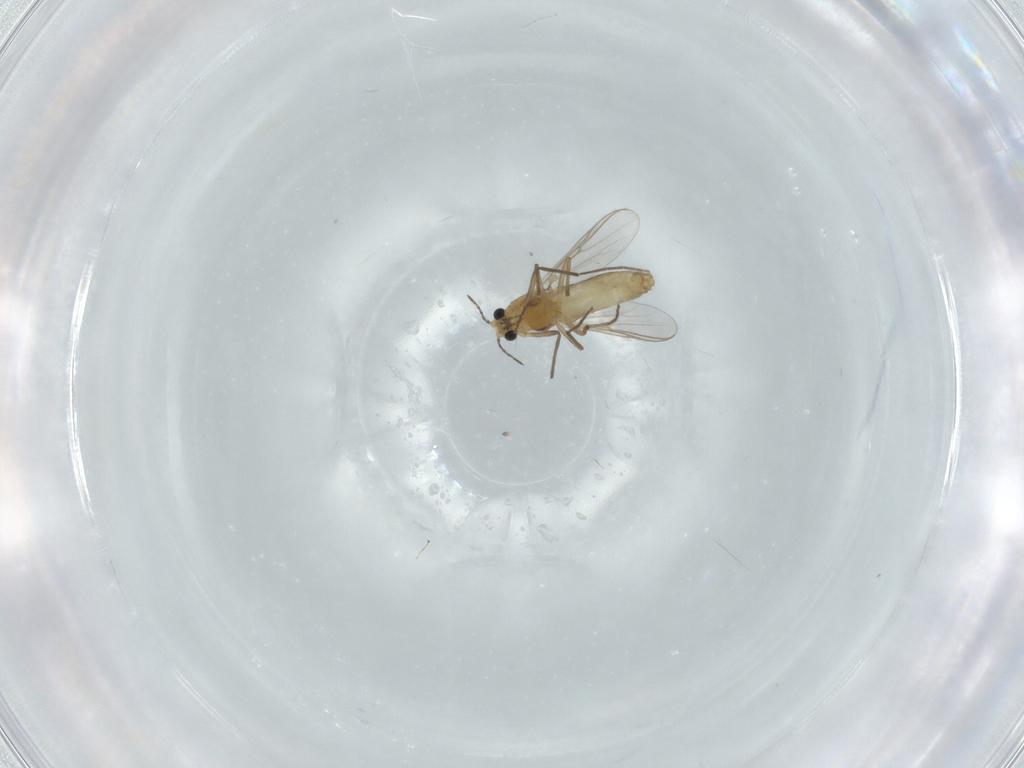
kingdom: Animalia
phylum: Arthropoda
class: Insecta
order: Diptera
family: Chironomidae
